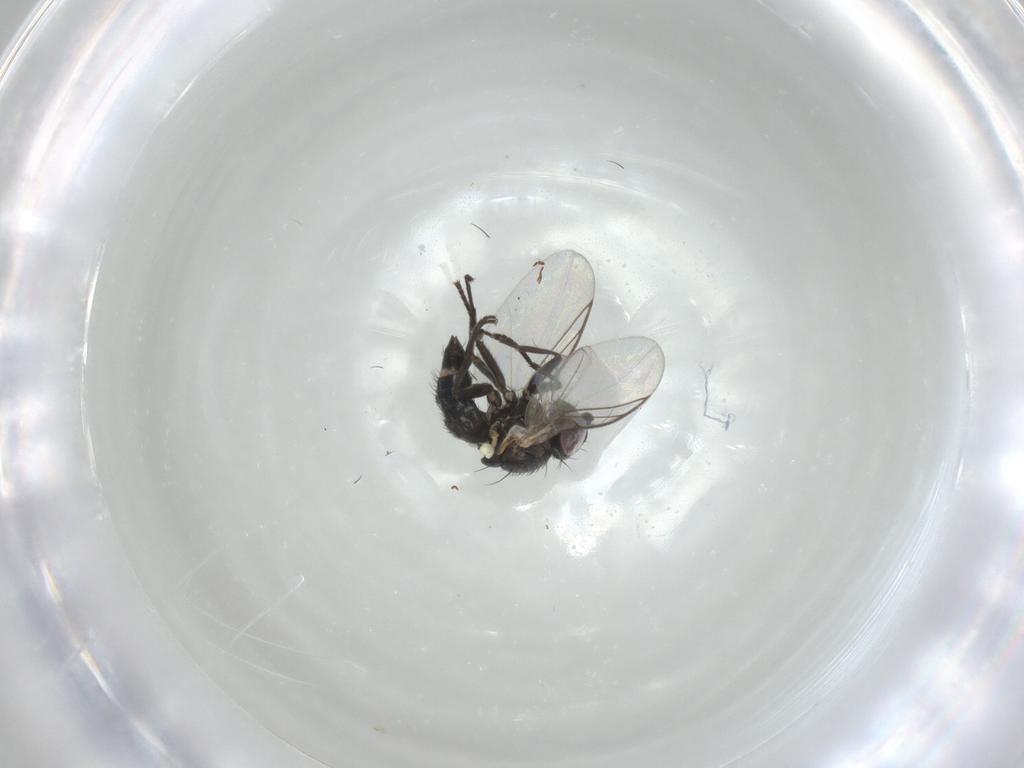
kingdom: Animalia
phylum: Arthropoda
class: Insecta
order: Diptera
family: Agromyzidae
